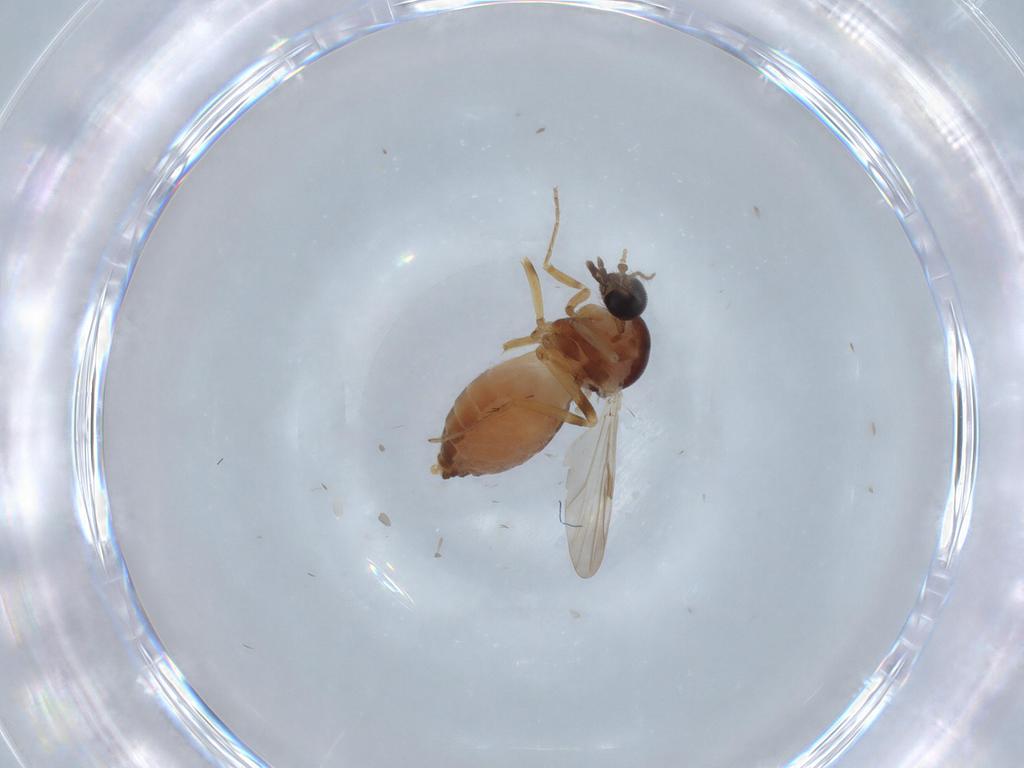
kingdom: Animalia
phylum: Arthropoda
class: Insecta
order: Diptera
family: Ceratopogonidae
